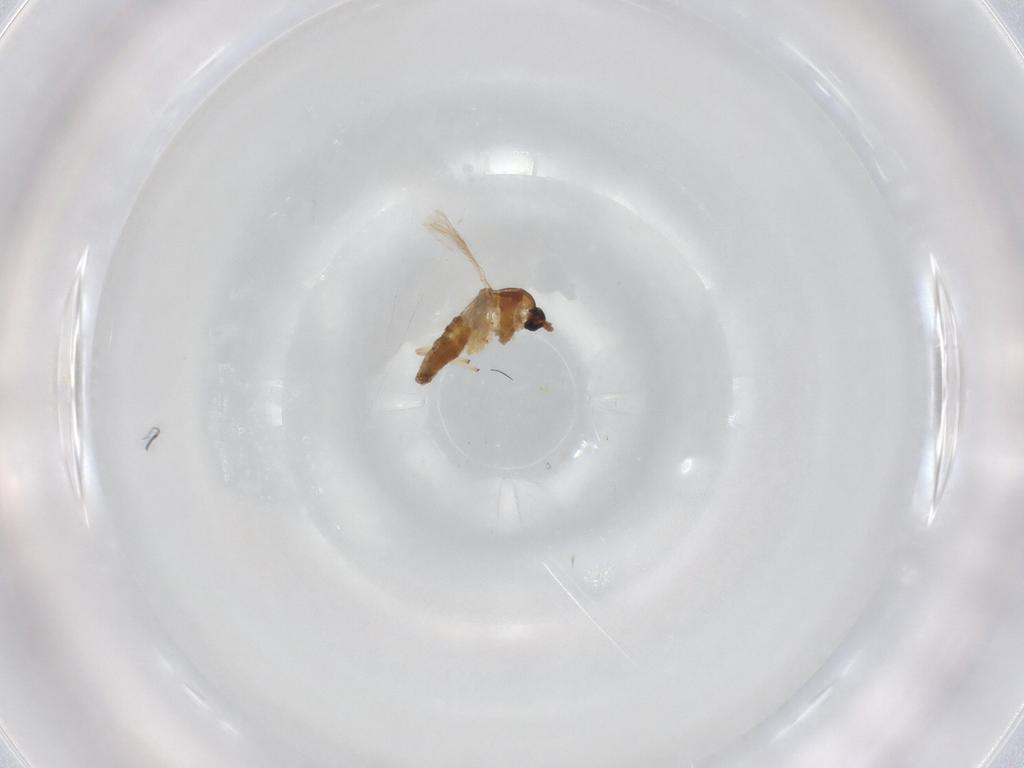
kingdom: Animalia
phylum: Arthropoda
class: Insecta
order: Diptera
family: Chironomidae
